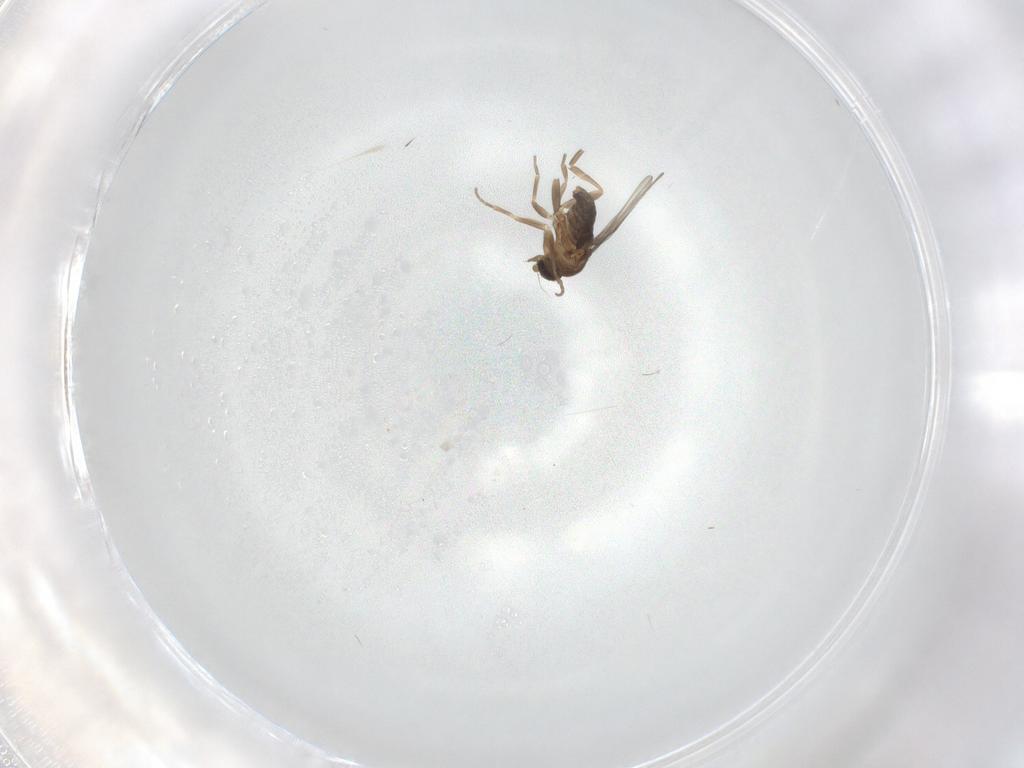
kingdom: Animalia
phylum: Arthropoda
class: Insecta
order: Diptera
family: Phoridae
